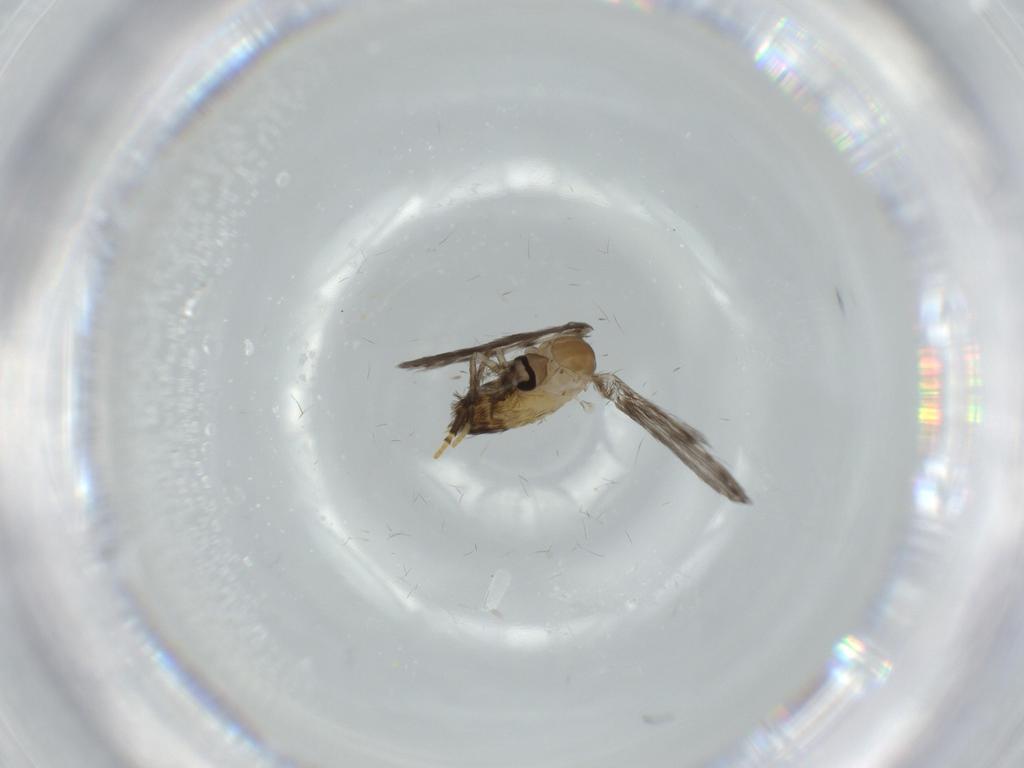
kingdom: Animalia
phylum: Arthropoda
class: Insecta
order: Diptera
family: Psychodidae
